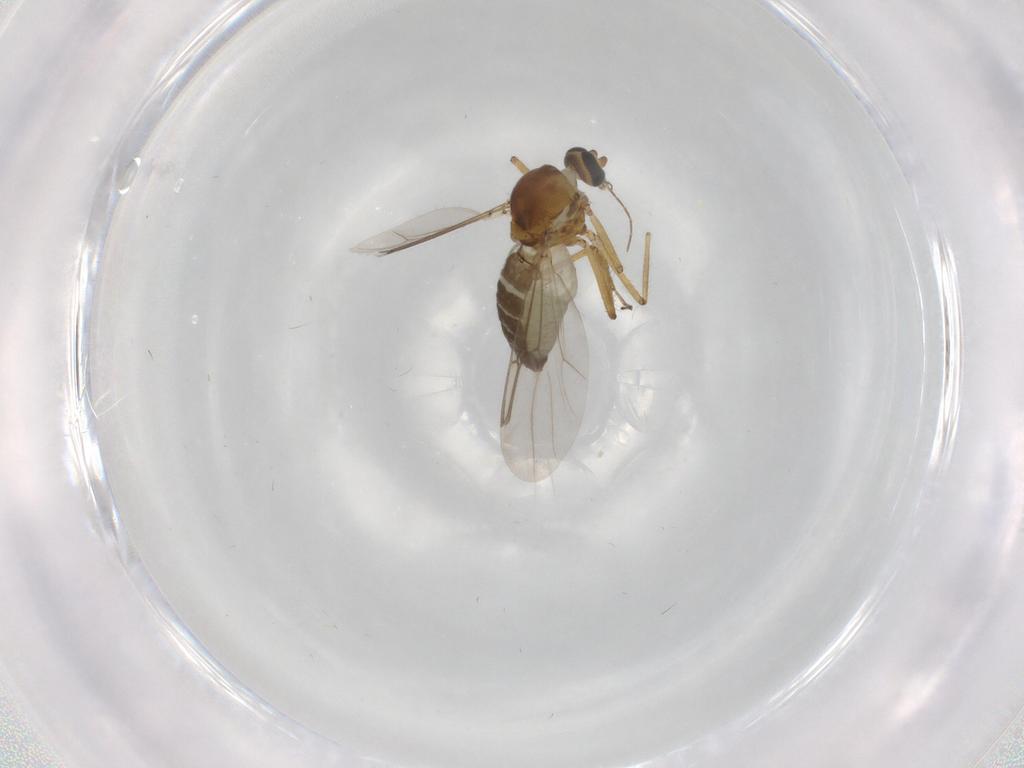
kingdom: Animalia
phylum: Arthropoda
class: Insecta
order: Diptera
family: Ceratopogonidae
